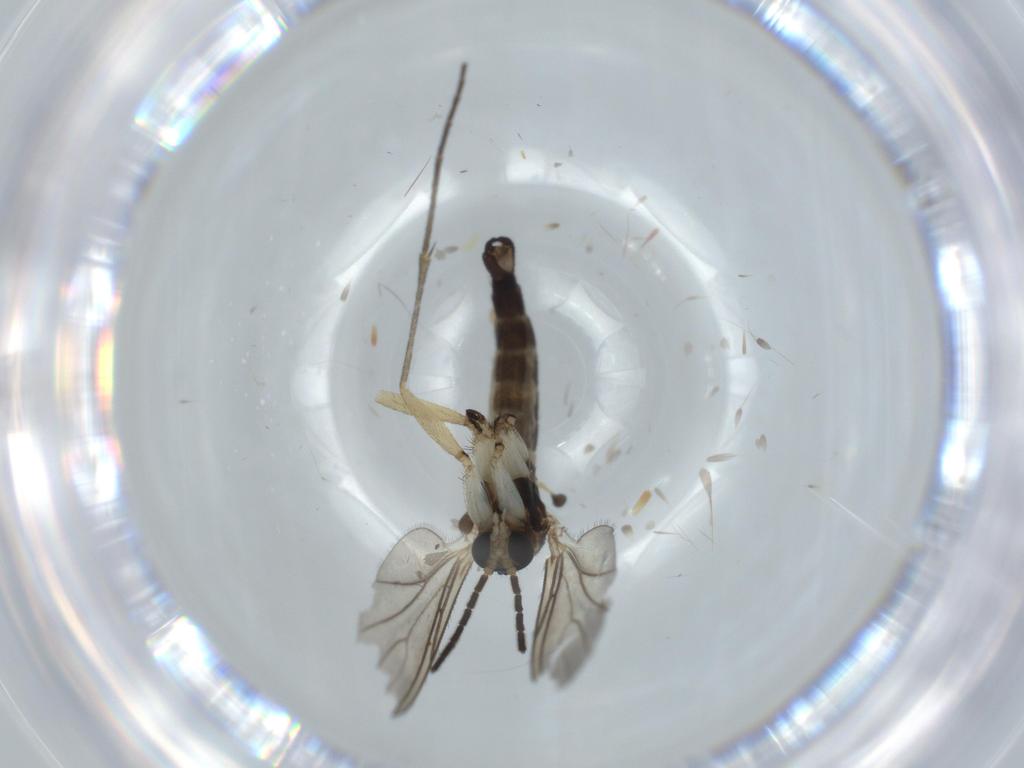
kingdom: Animalia
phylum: Arthropoda
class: Insecta
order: Diptera
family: Sciaridae
